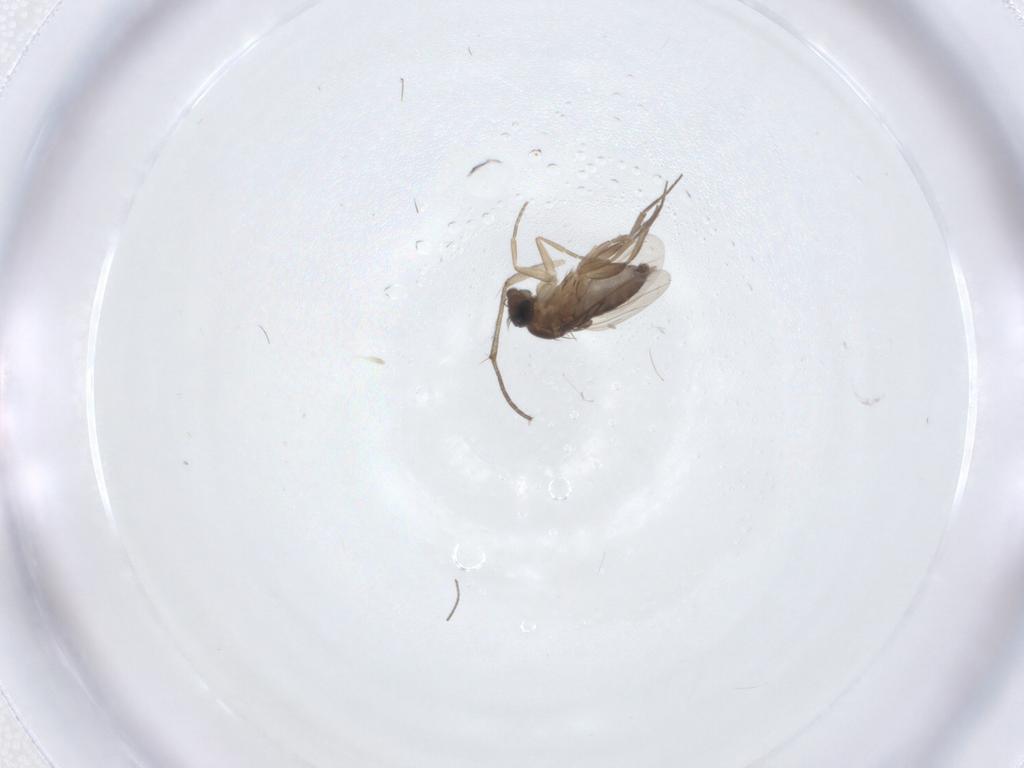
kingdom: Animalia
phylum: Arthropoda
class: Insecta
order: Diptera
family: Phoridae
